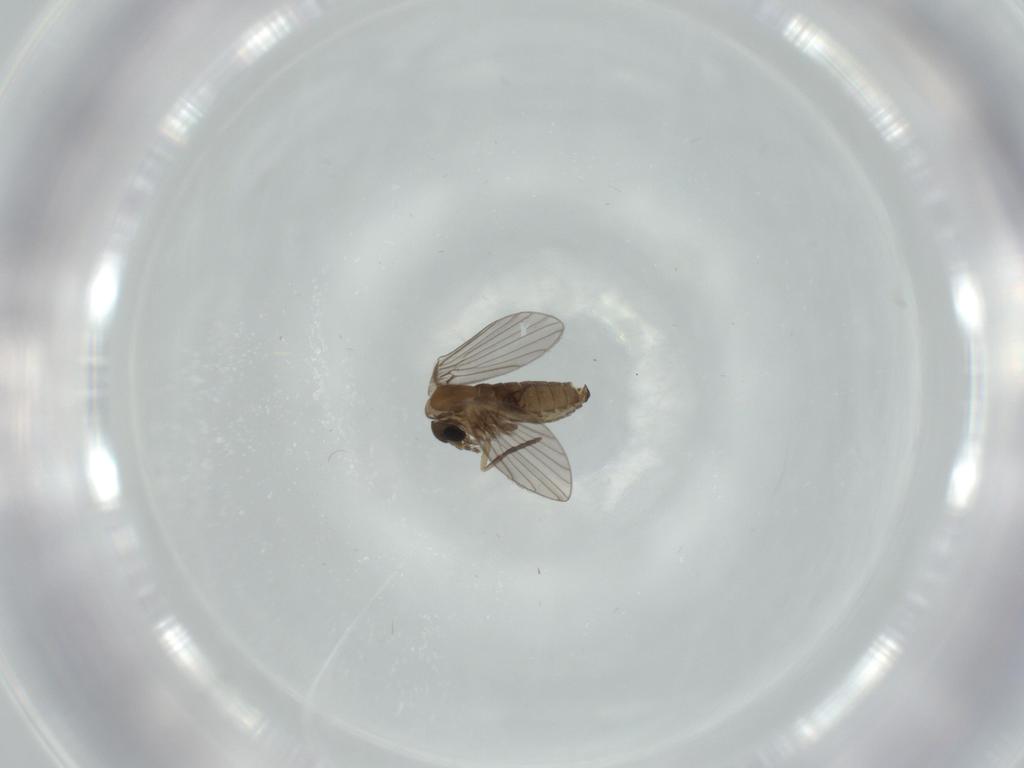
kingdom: Animalia
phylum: Arthropoda
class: Insecta
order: Diptera
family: Psychodidae
